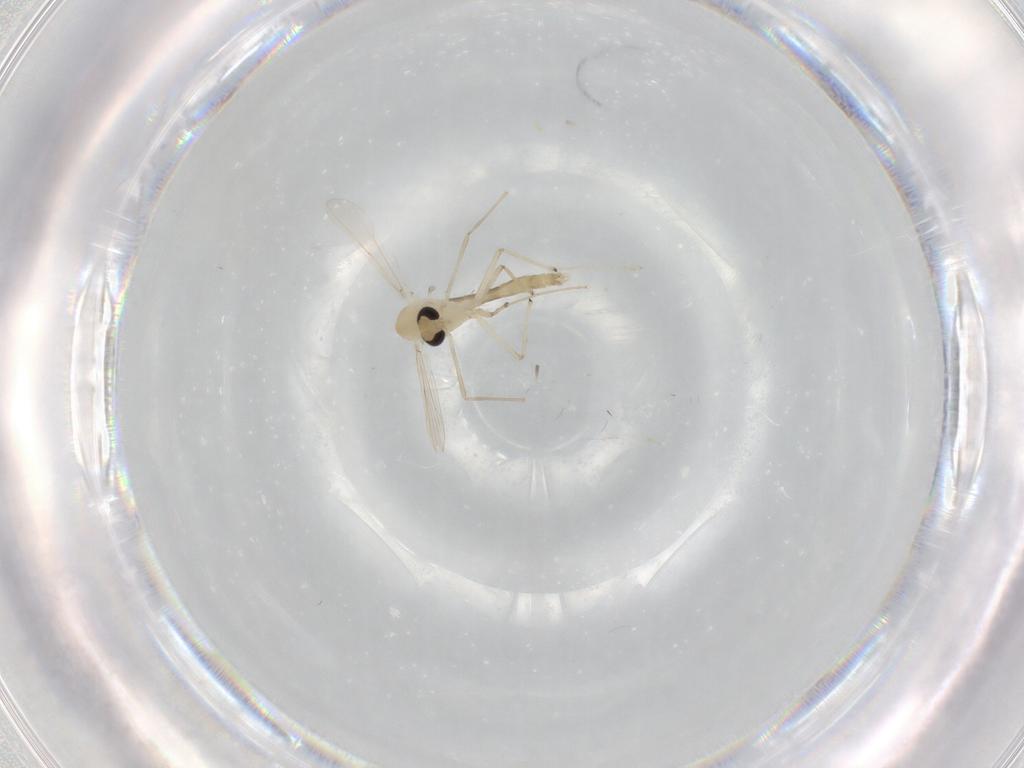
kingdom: Animalia
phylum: Arthropoda
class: Insecta
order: Diptera
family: Chironomidae
